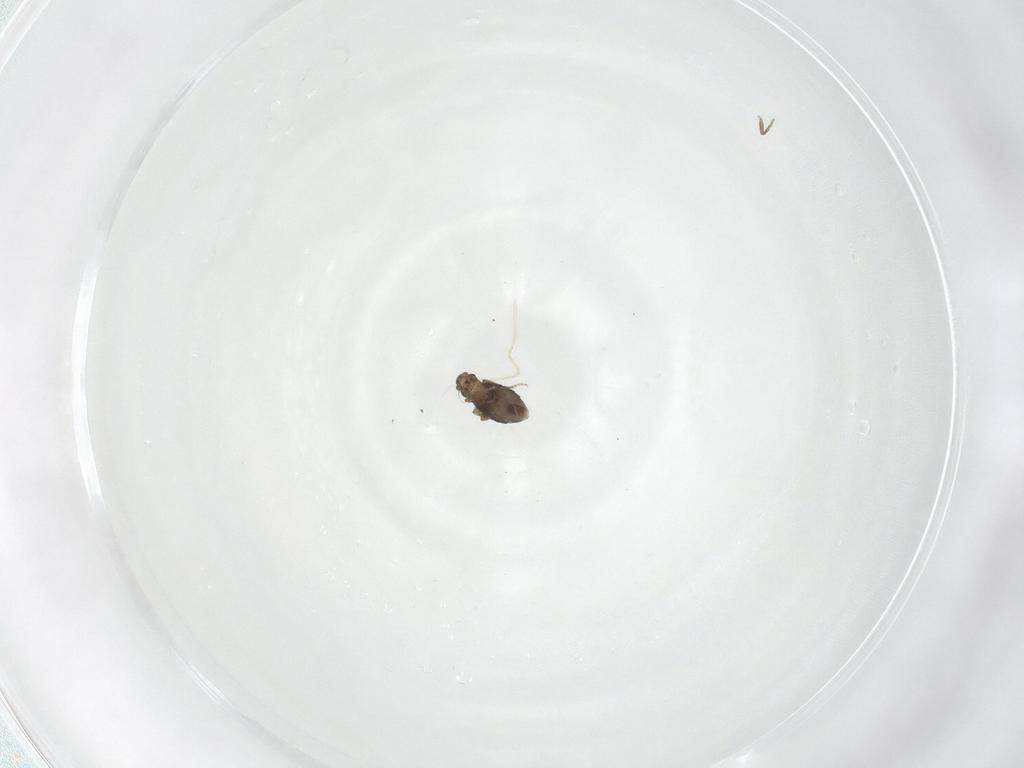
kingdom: Animalia
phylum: Arthropoda
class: Insecta
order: Diptera
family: Phoridae
